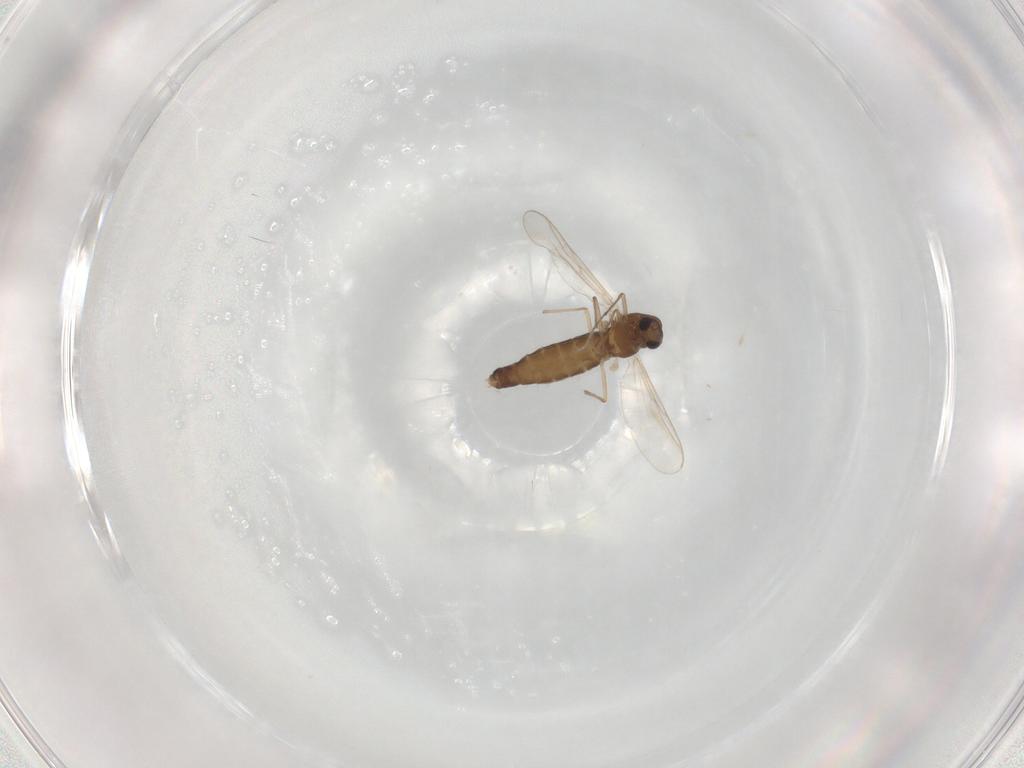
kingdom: Animalia
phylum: Arthropoda
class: Insecta
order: Diptera
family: Chironomidae
